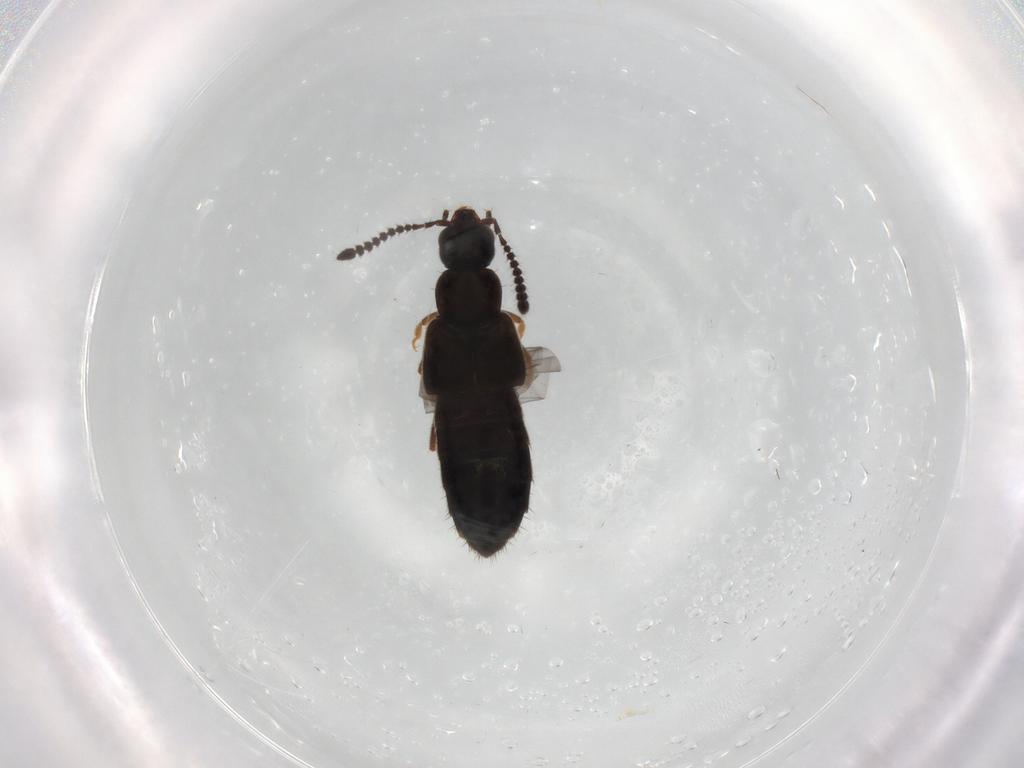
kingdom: Animalia
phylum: Arthropoda
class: Insecta
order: Coleoptera
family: Staphylinidae
